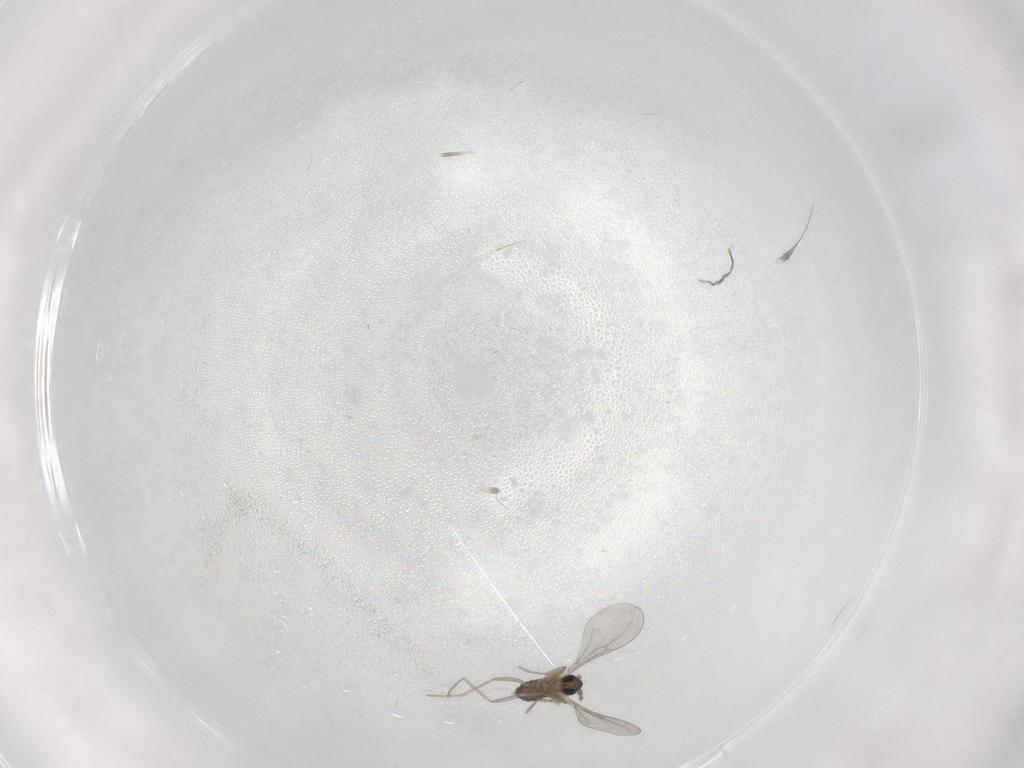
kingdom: Animalia
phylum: Arthropoda
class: Insecta
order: Diptera
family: Cecidomyiidae
